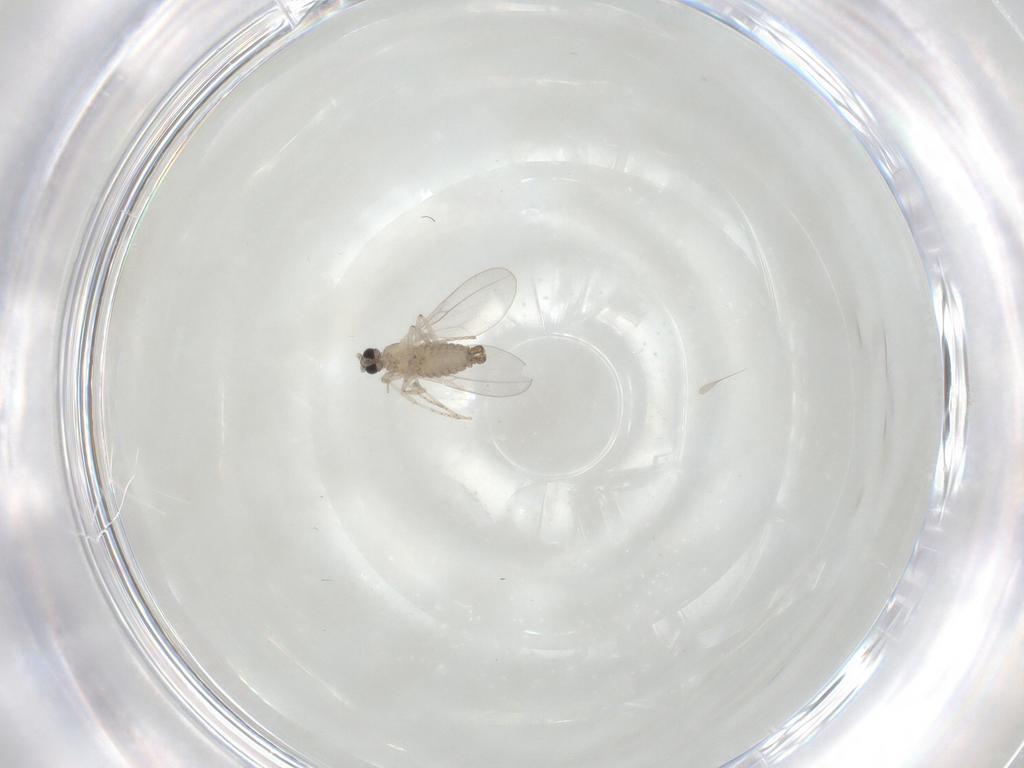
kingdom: Animalia
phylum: Arthropoda
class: Insecta
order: Diptera
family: Cecidomyiidae
